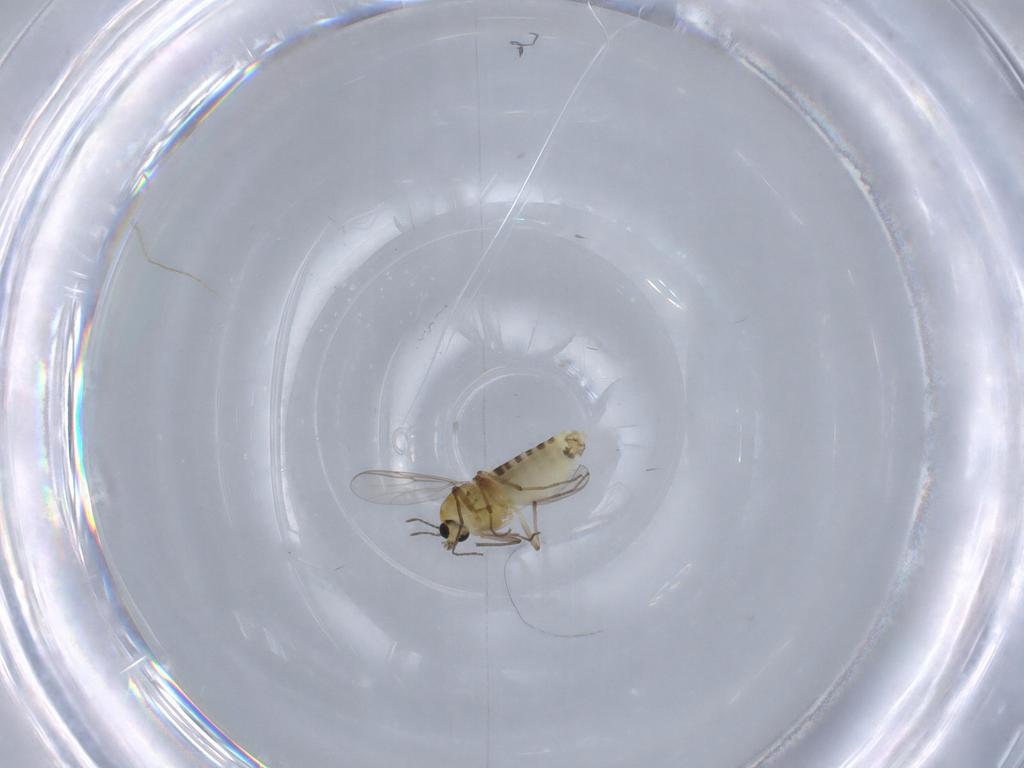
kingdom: Animalia
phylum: Arthropoda
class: Insecta
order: Diptera
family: Chironomidae
